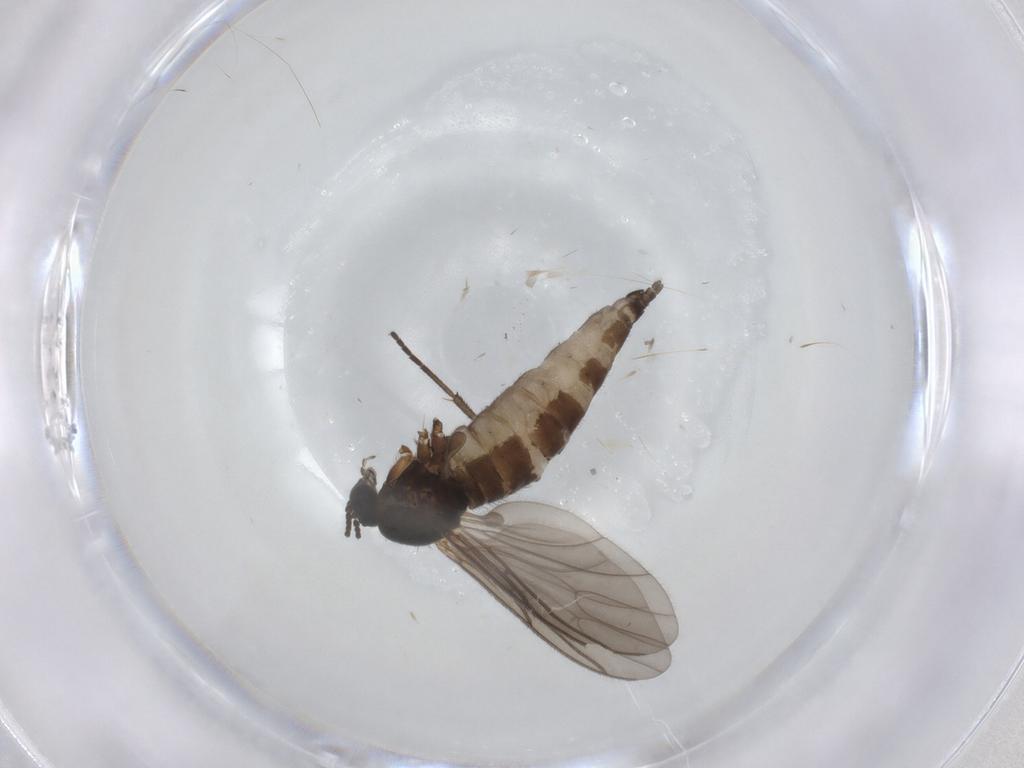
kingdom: Animalia
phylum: Arthropoda
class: Insecta
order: Diptera
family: Sciaridae
